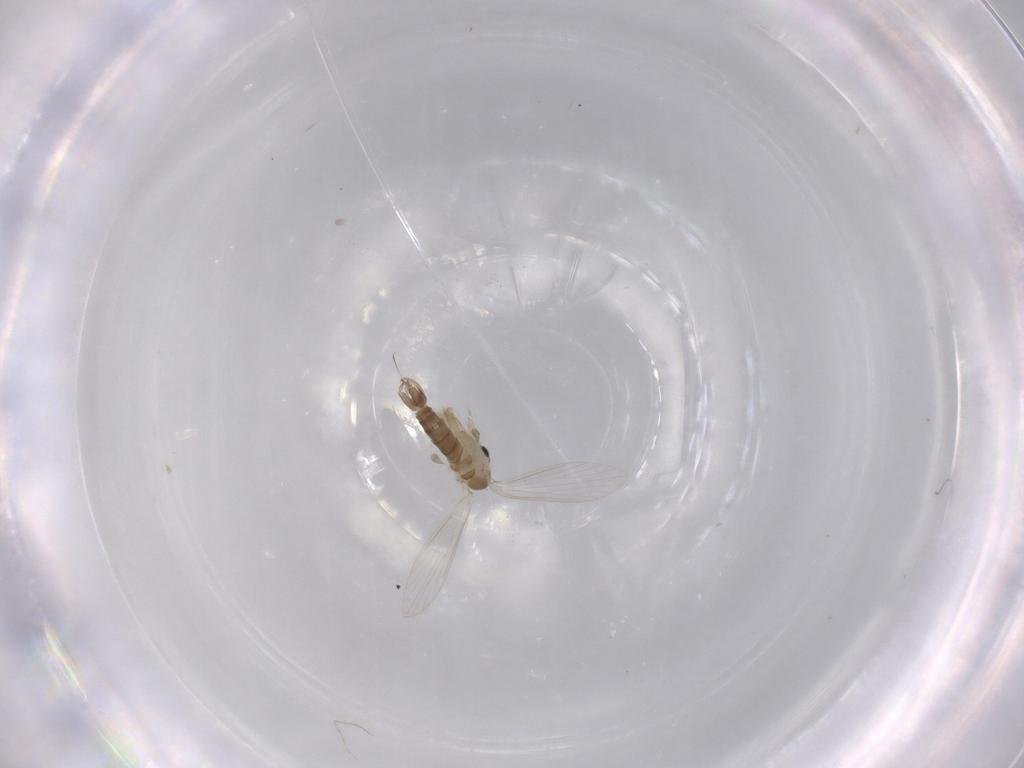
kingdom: Animalia
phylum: Arthropoda
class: Insecta
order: Diptera
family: Psychodidae
